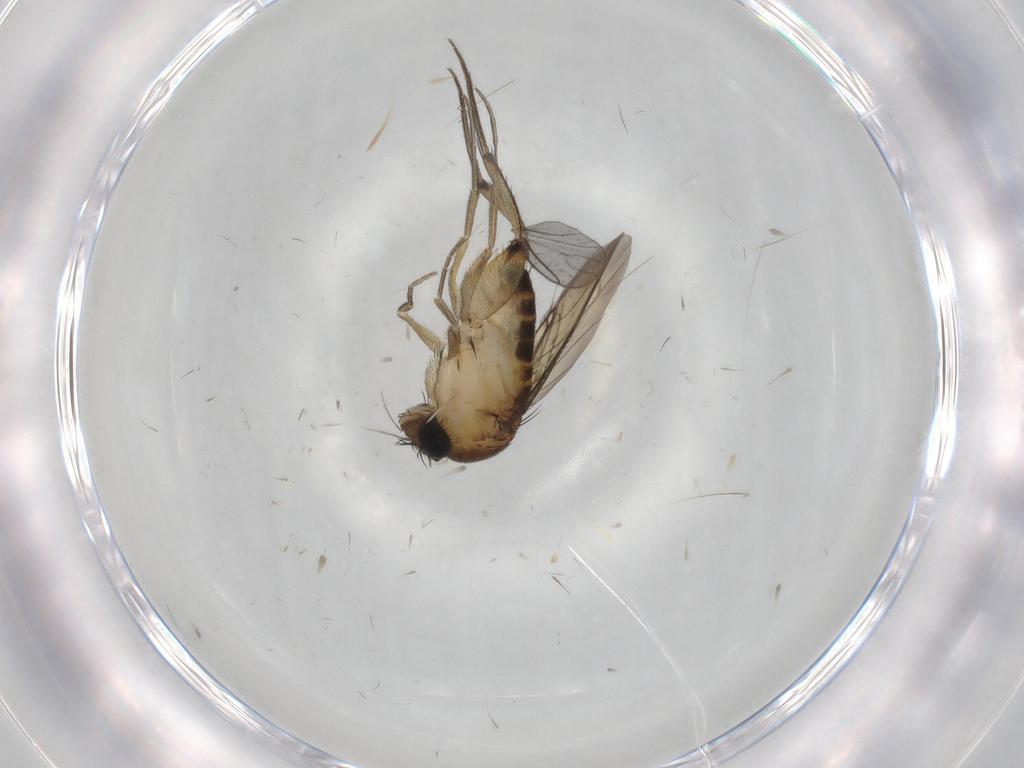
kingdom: Animalia
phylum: Arthropoda
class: Insecta
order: Diptera
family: Phoridae
